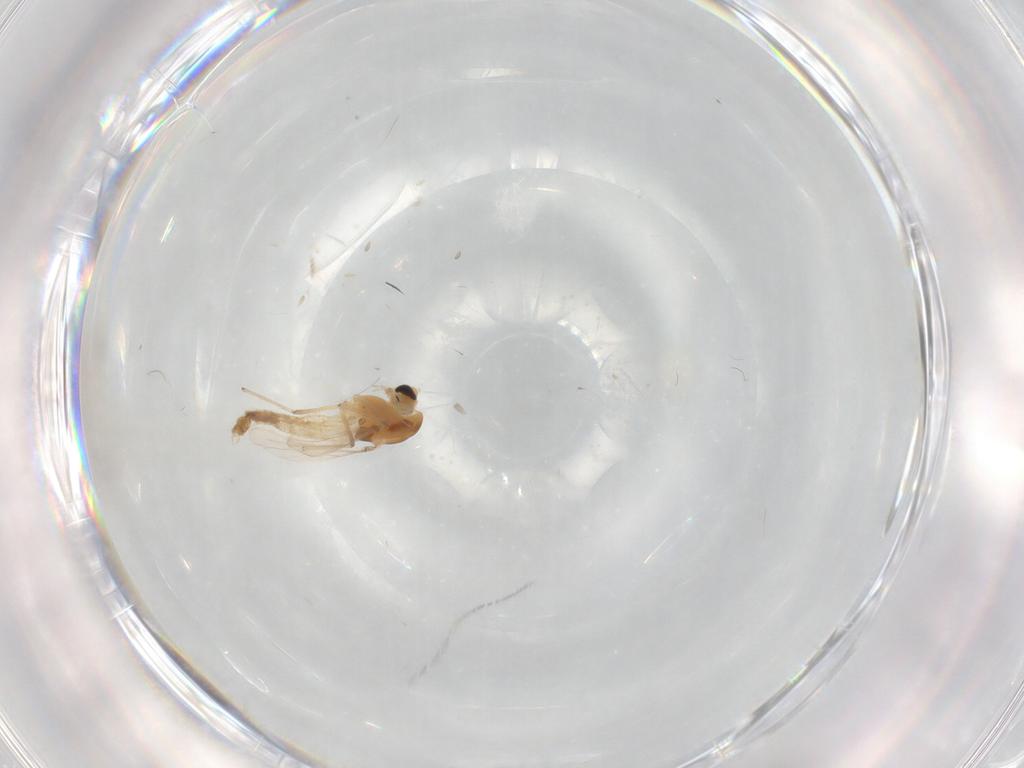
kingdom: Animalia
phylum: Arthropoda
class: Insecta
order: Diptera
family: Chironomidae
